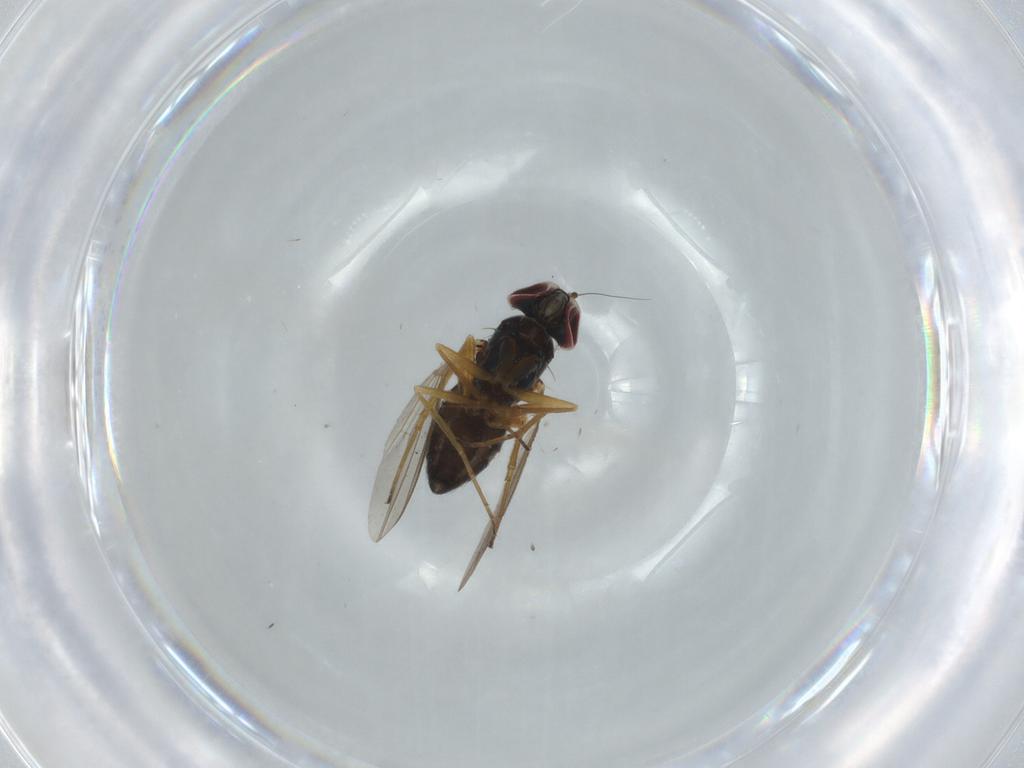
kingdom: Animalia
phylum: Arthropoda
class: Insecta
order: Diptera
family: Dolichopodidae
